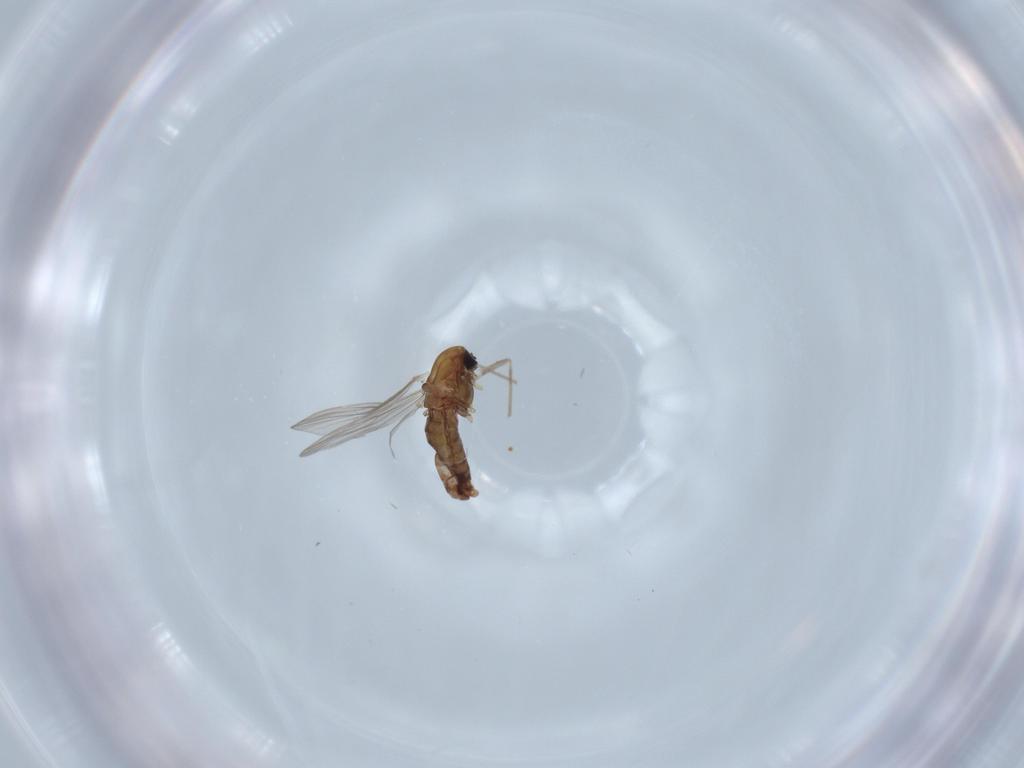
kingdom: Animalia
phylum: Arthropoda
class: Insecta
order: Diptera
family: Chironomidae
